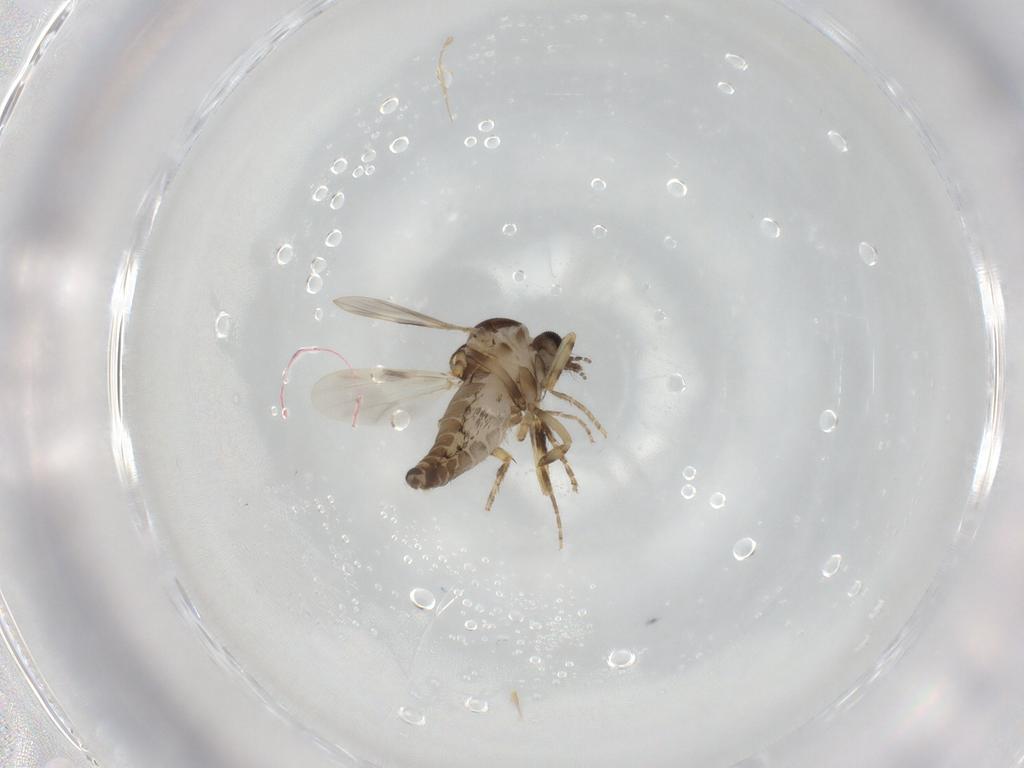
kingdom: Animalia
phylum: Arthropoda
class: Insecta
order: Diptera
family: Ceratopogonidae
